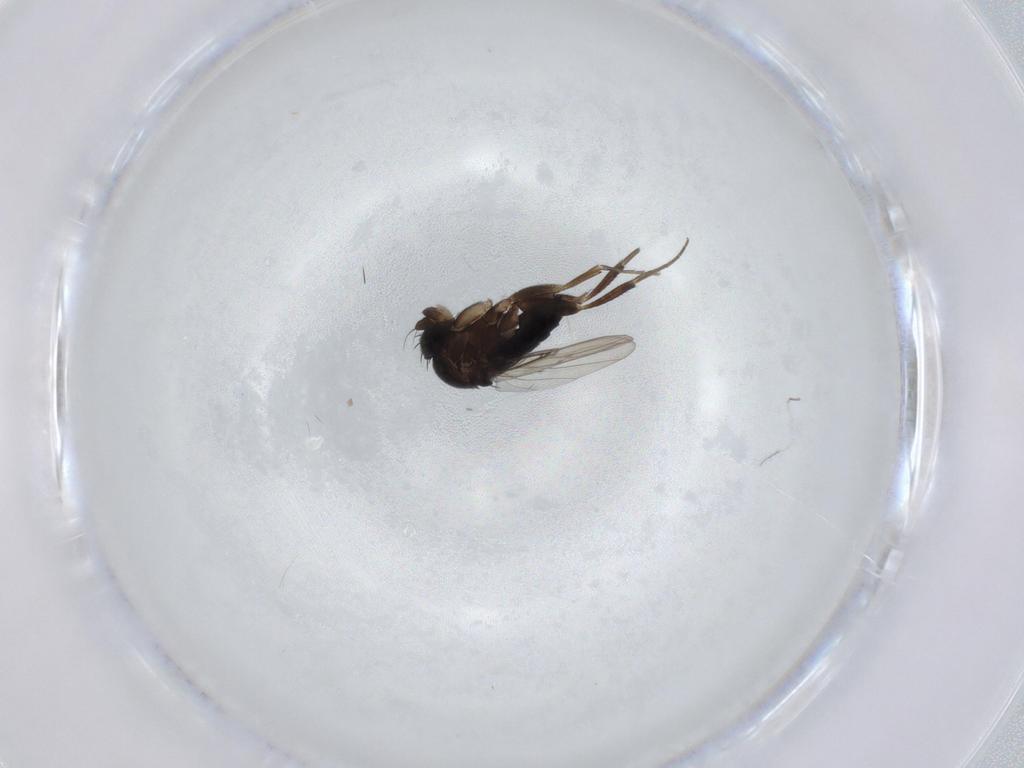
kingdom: Animalia
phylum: Arthropoda
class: Insecta
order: Diptera
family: Phoridae
